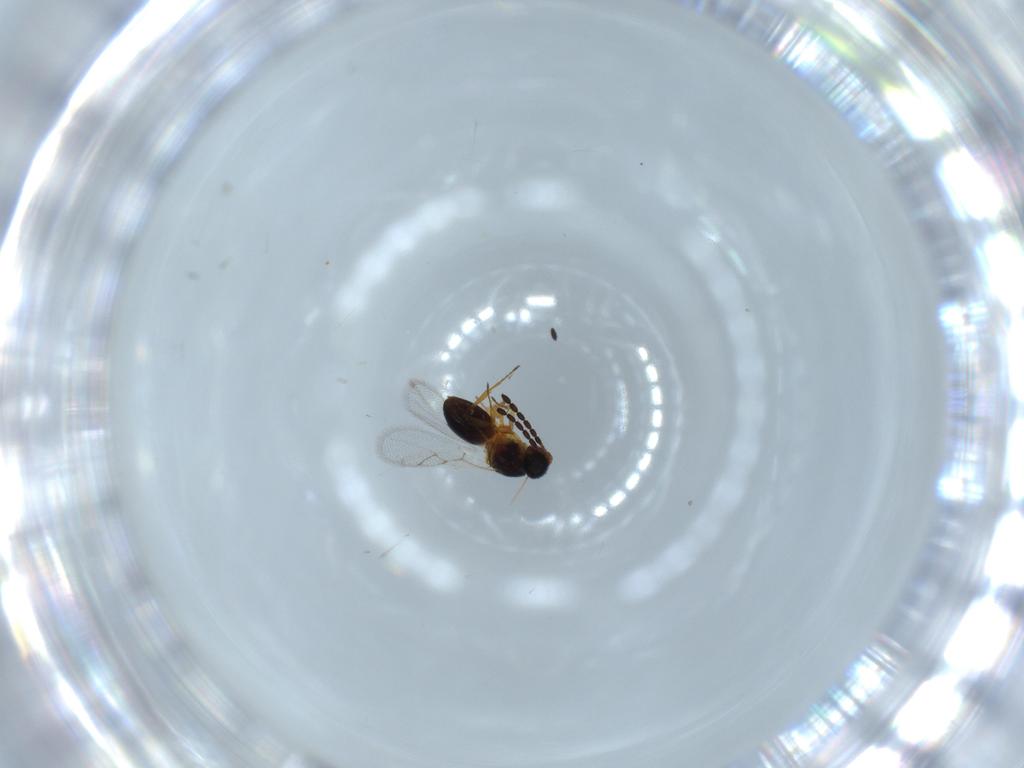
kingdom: Animalia
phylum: Arthropoda
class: Insecta
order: Hymenoptera
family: Figitidae
